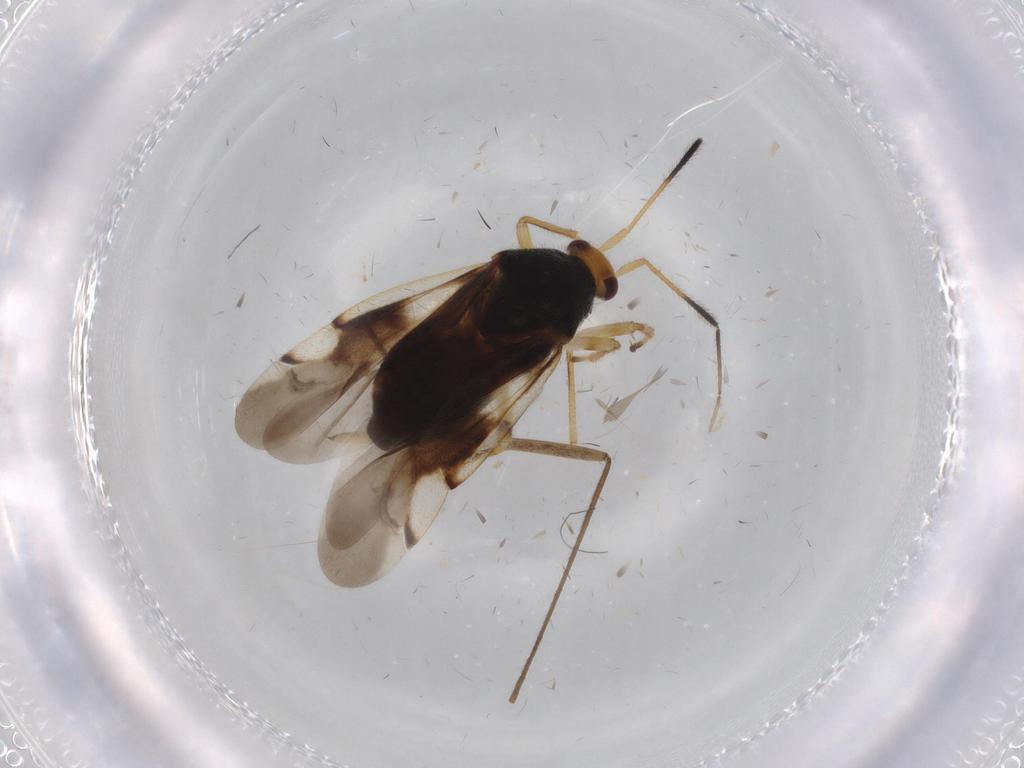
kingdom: Animalia
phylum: Arthropoda
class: Insecta
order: Hemiptera
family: Miridae
